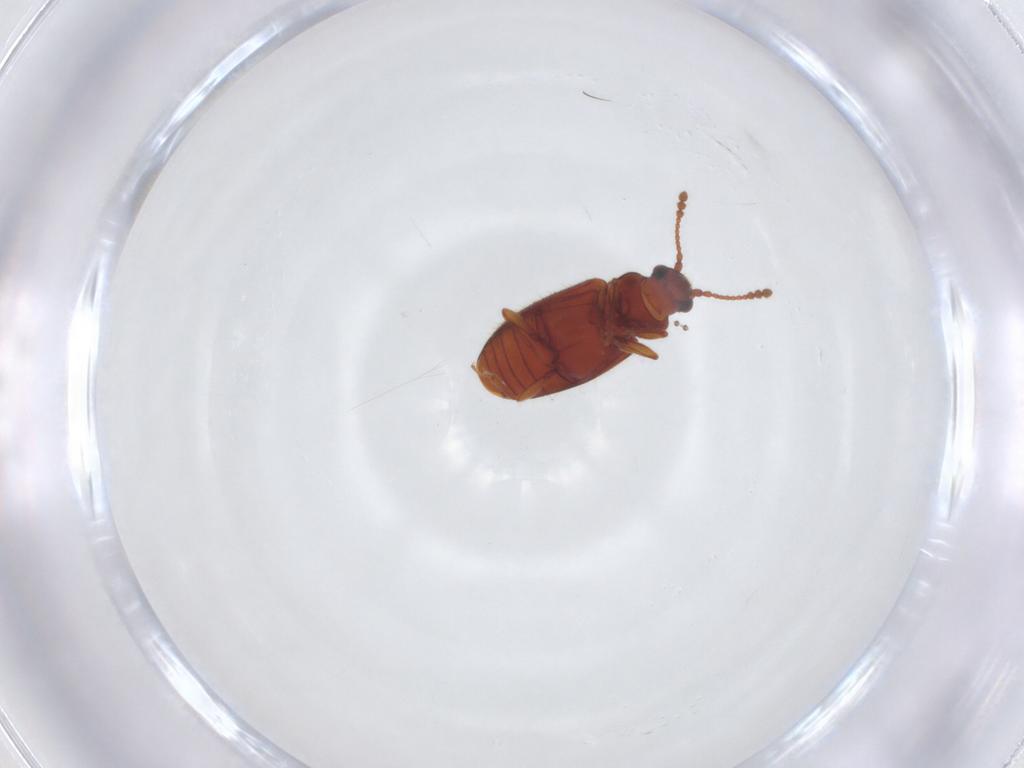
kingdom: Animalia
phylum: Arthropoda
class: Insecta
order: Coleoptera
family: Cryptophagidae
